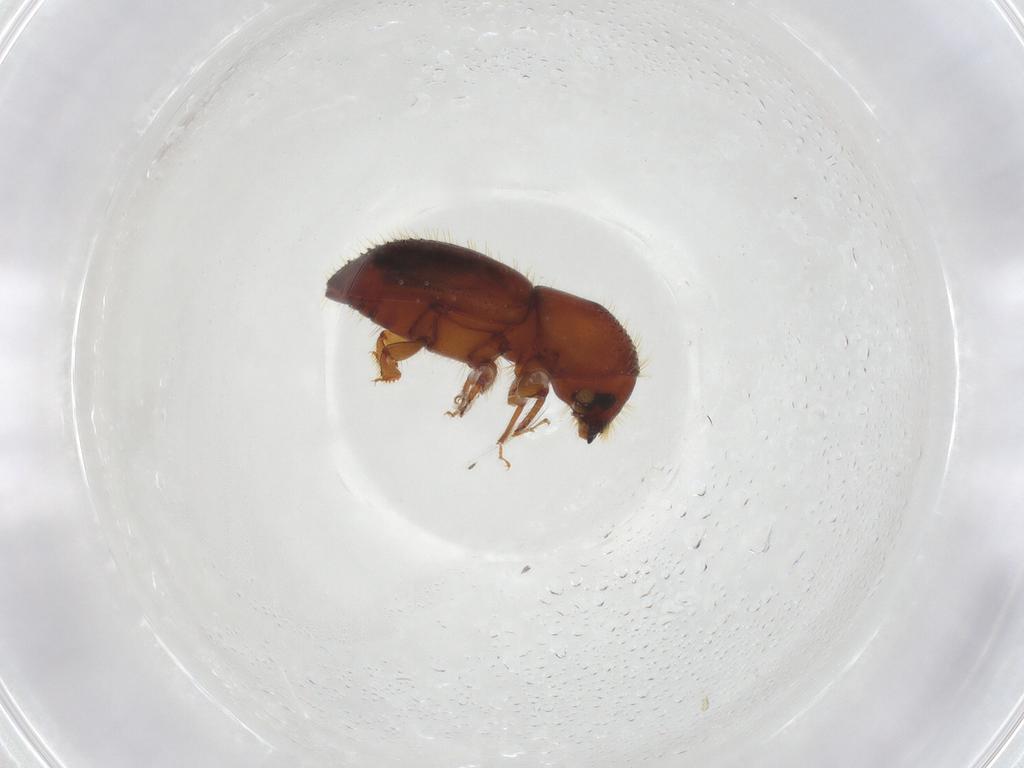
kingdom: Animalia
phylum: Arthropoda
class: Insecta
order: Coleoptera
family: Curculionidae
